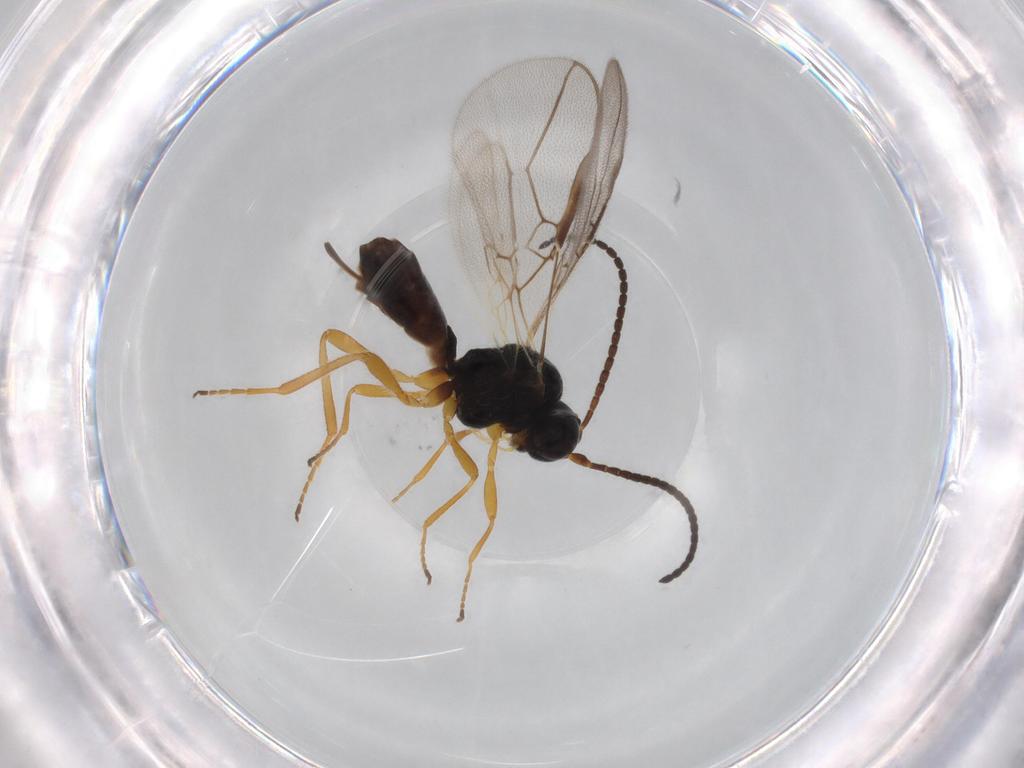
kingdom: Animalia
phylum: Arthropoda
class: Insecta
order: Hymenoptera
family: Braconidae
